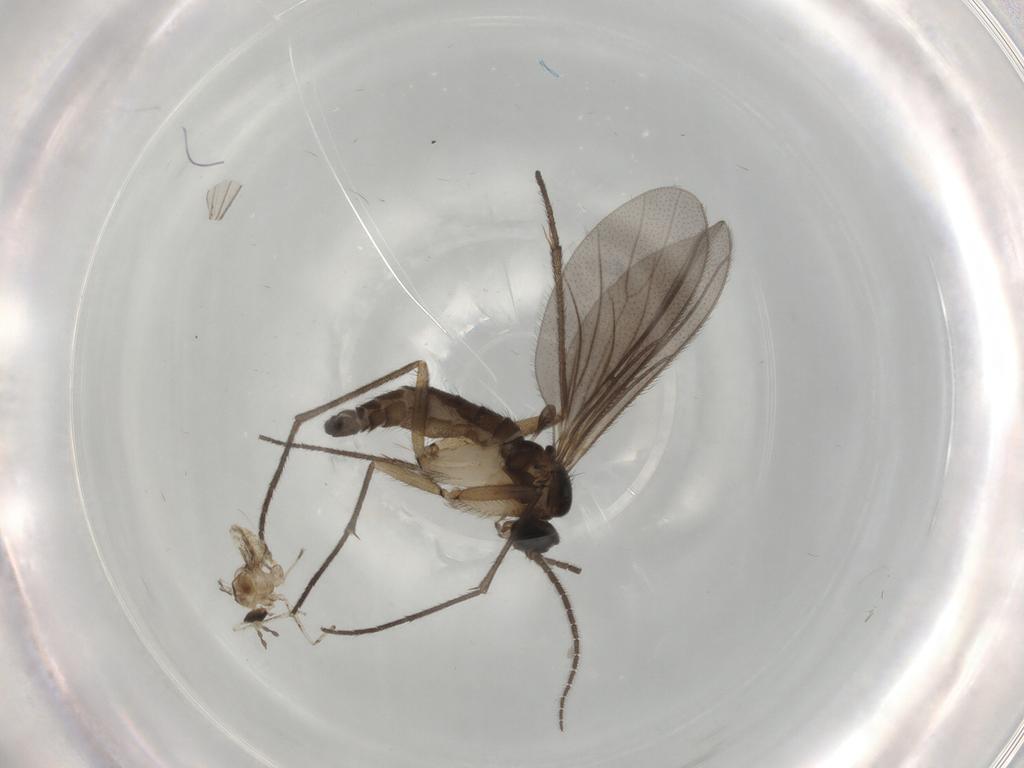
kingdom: Animalia
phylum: Arthropoda
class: Insecta
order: Diptera
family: Sciaridae
